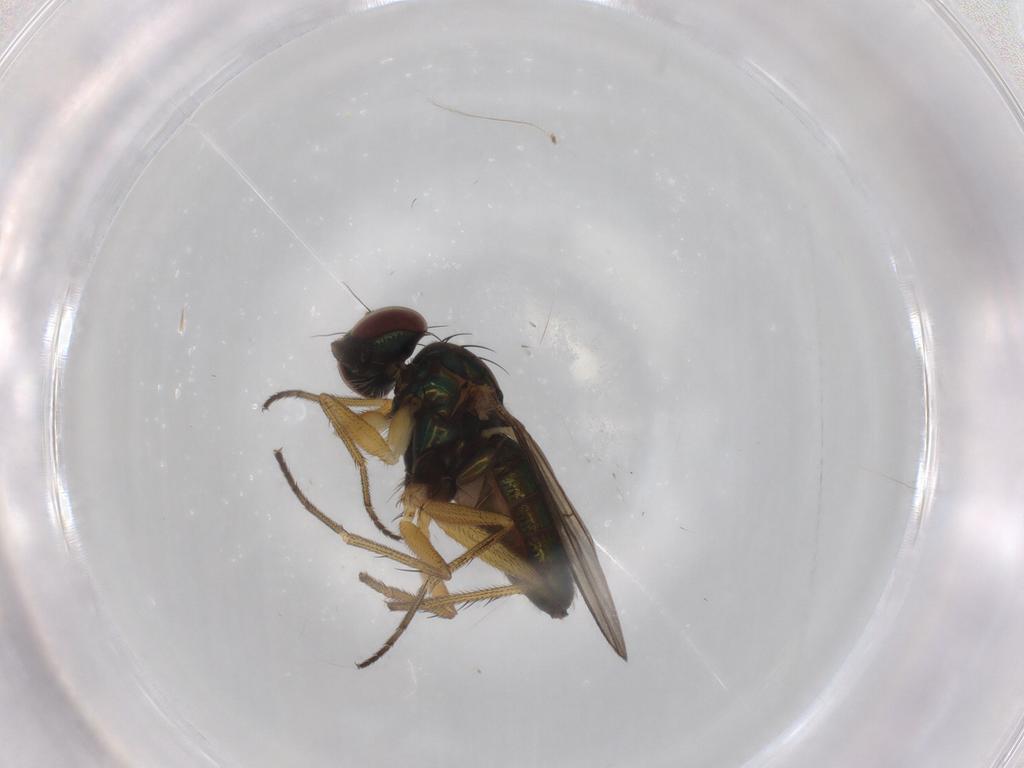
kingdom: Animalia
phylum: Arthropoda
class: Insecta
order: Diptera
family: Dolichopodidae
